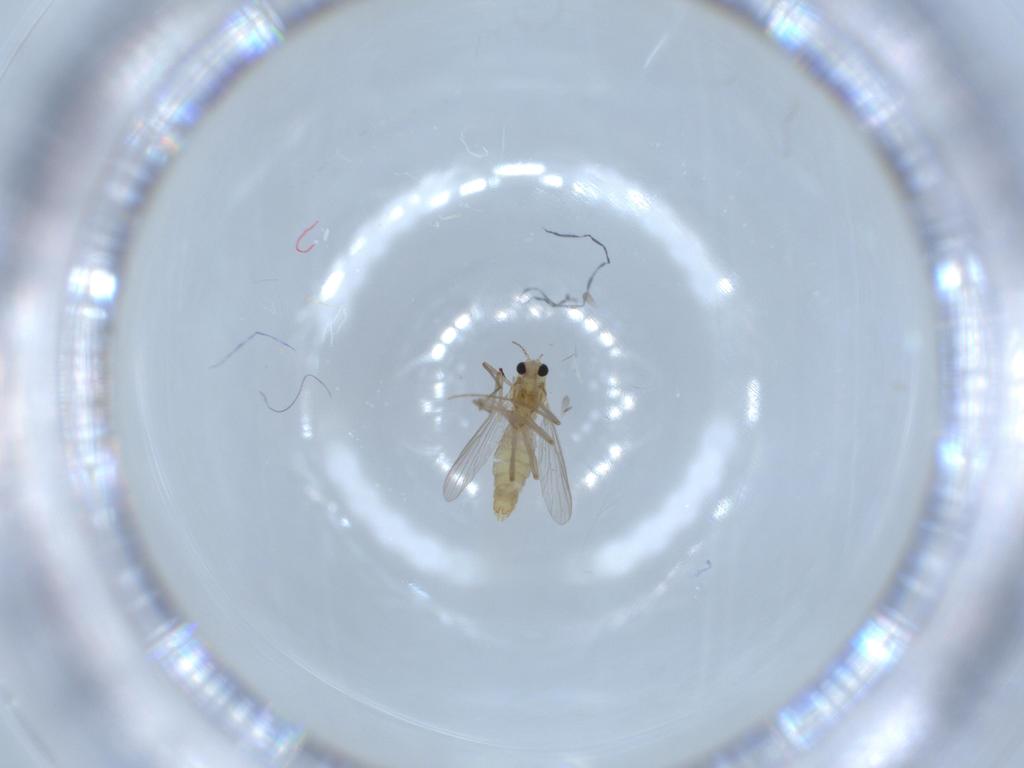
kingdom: Animalia
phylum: Arthropoda
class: Insecta
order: Diptera
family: Chironomidae
